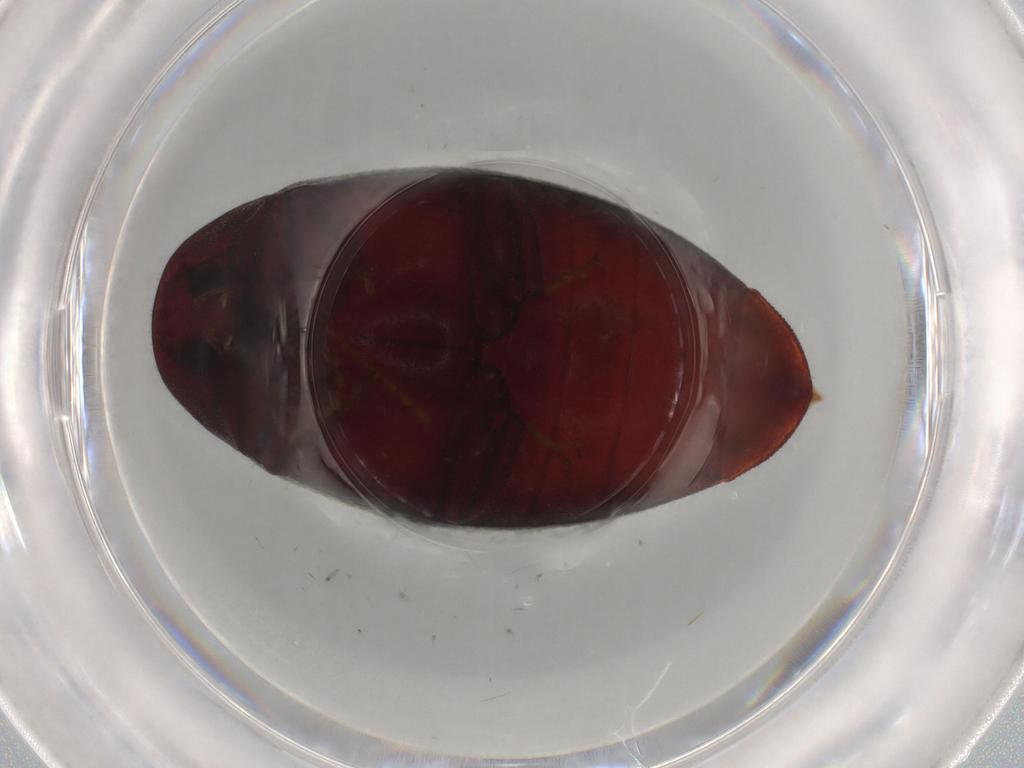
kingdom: Animalia
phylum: Arthropoda
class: Insecta
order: Coleoptera
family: Chelonariidae
